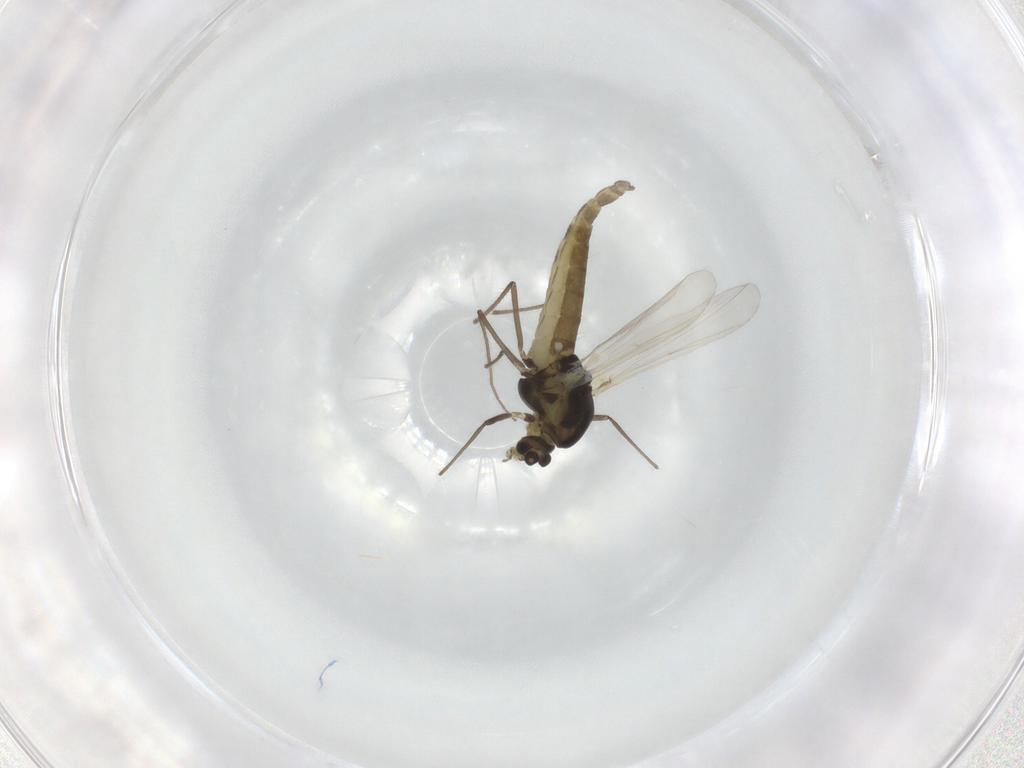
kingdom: Animalia
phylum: Arthropoda
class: Insecta
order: Diptera
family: Chironomidae
